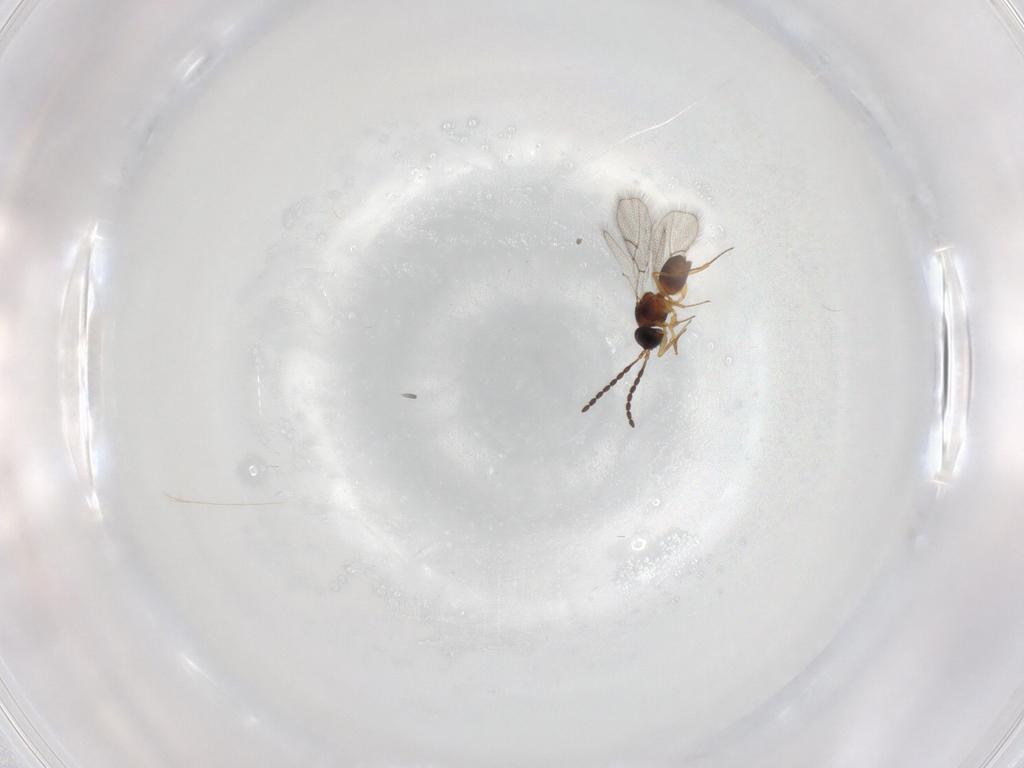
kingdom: Animalia
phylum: Arthropoda
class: Insecta
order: Hymenoptera
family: Figitidae
